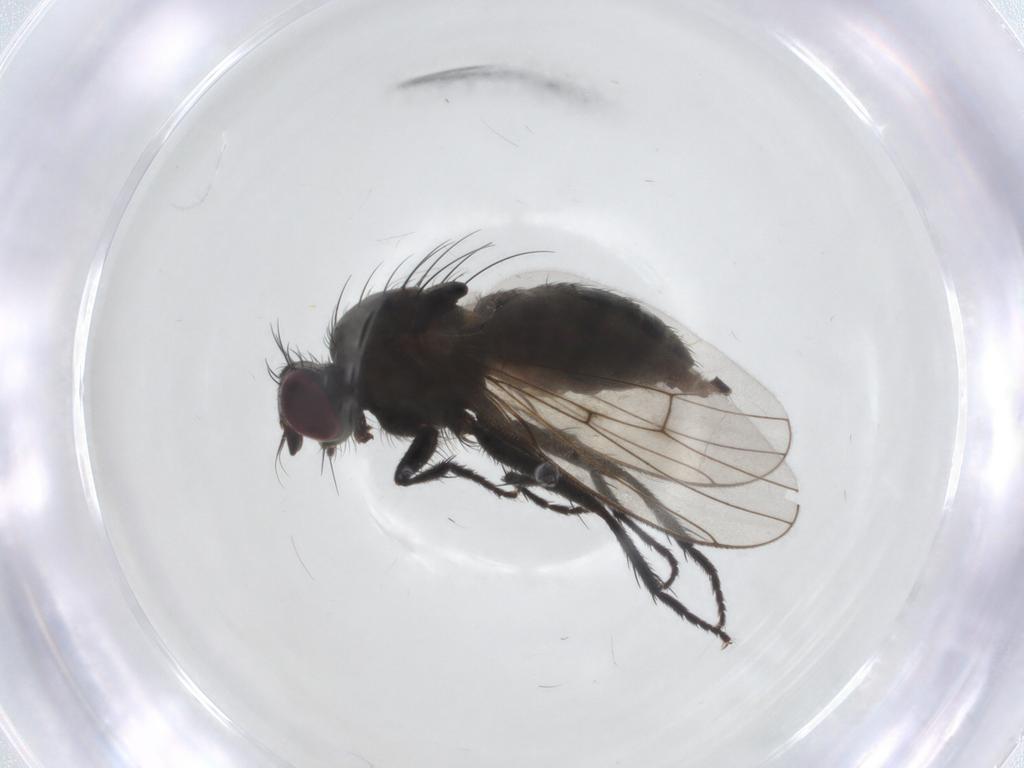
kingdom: Animalia
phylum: Arthropoda
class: Insecta
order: Diptera
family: Muscidae
